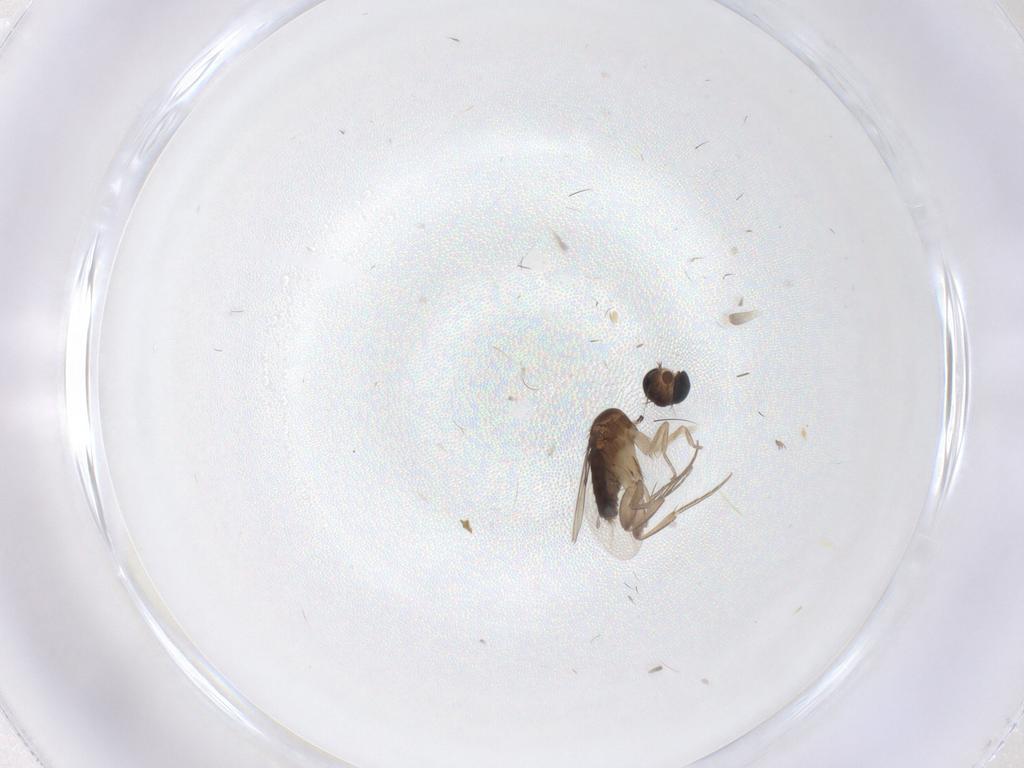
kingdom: Animalia
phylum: Arthropoda
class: Insecta
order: Diptera
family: Phoridae
